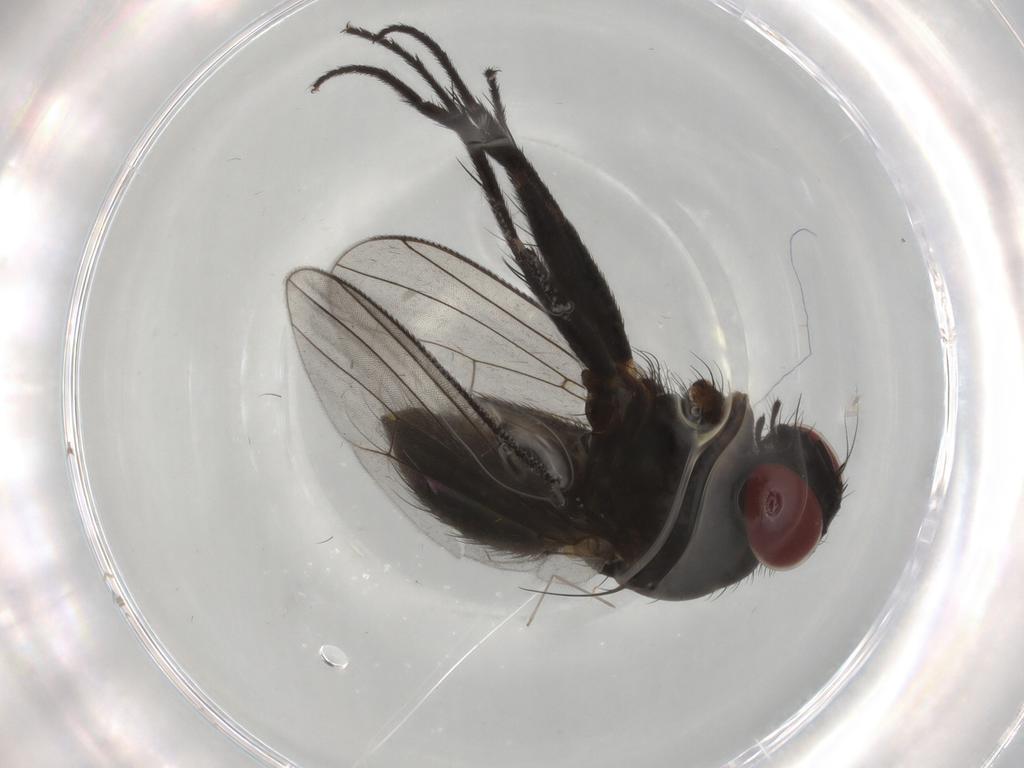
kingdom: Animalia
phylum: Arthropoda
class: Insecta
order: Diptera
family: Muscidae
